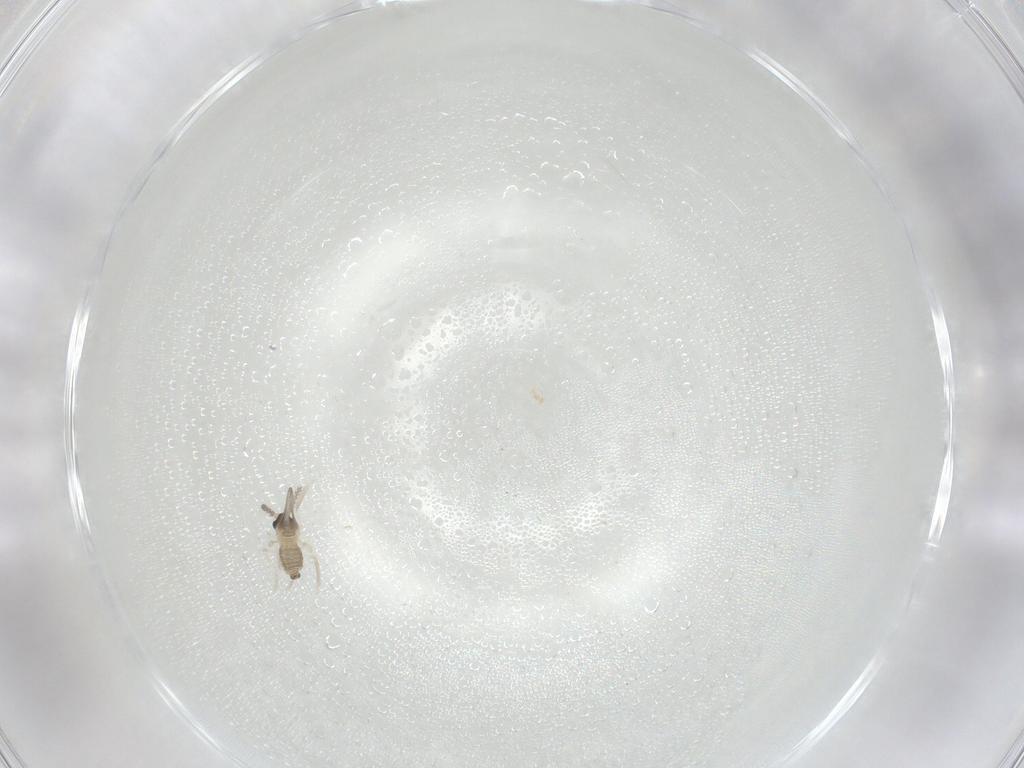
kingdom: Animalia
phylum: Arthropoda
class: Insecta
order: Diptera
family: Cecidomyiidae
